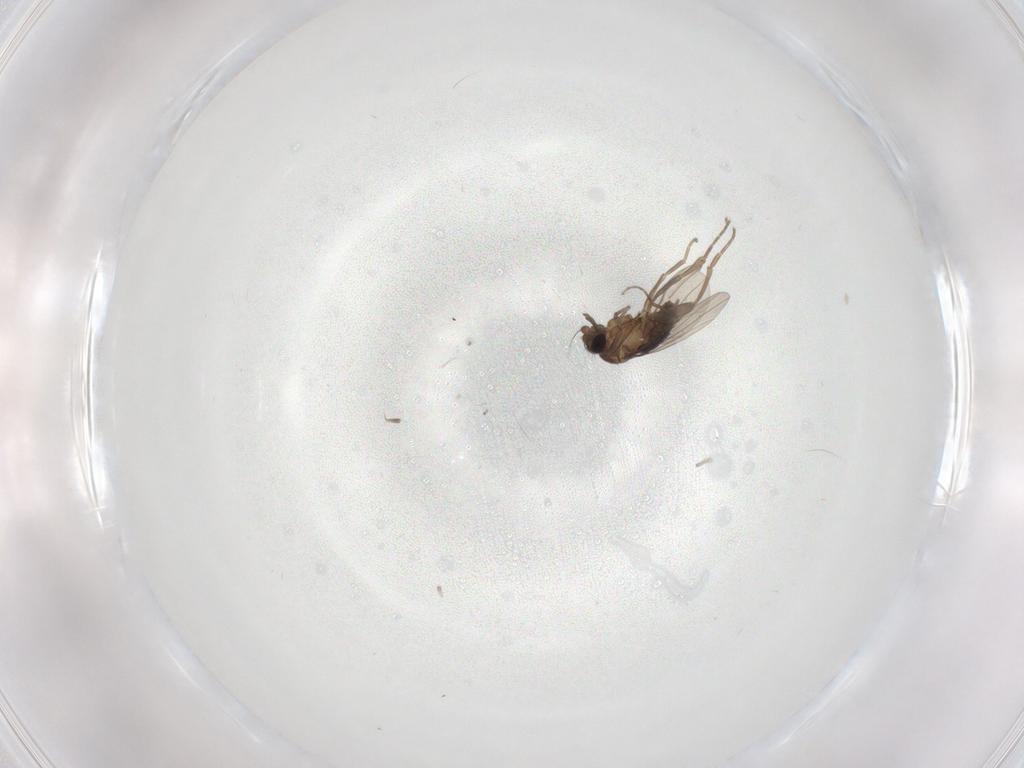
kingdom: Animalia
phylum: Arthropoda
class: Insecta
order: Diptera
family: Cecidomyiidae
